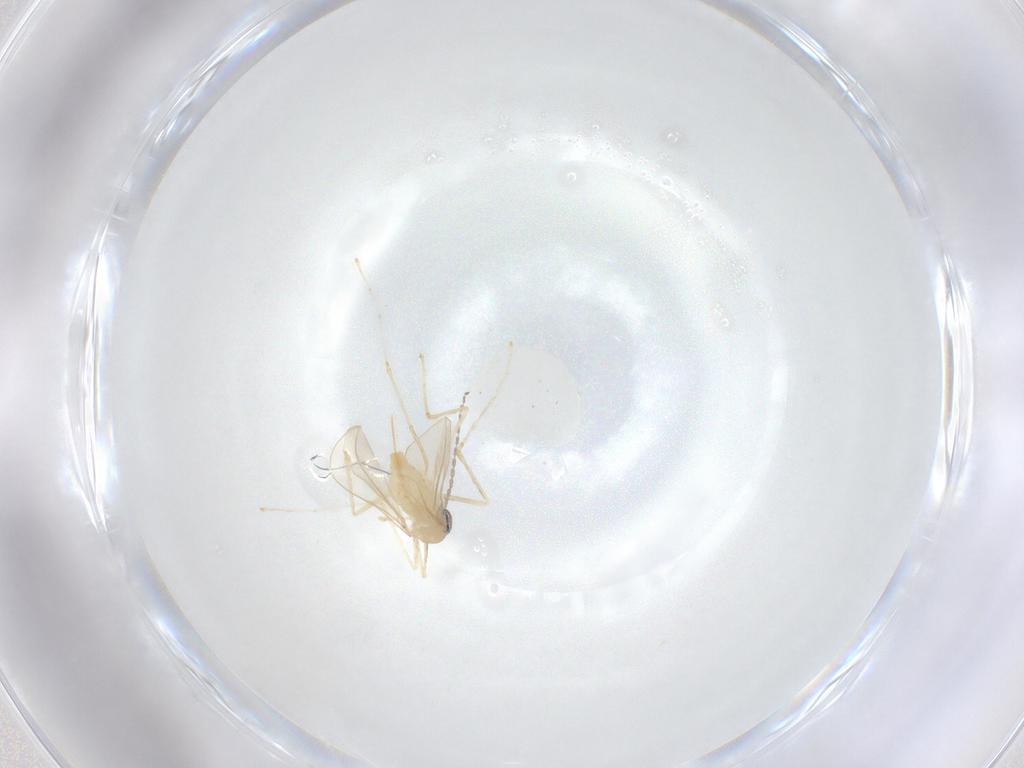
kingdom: Animalia
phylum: Arthropoda
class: Insecta
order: Diptera
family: Cecidomyiidae
